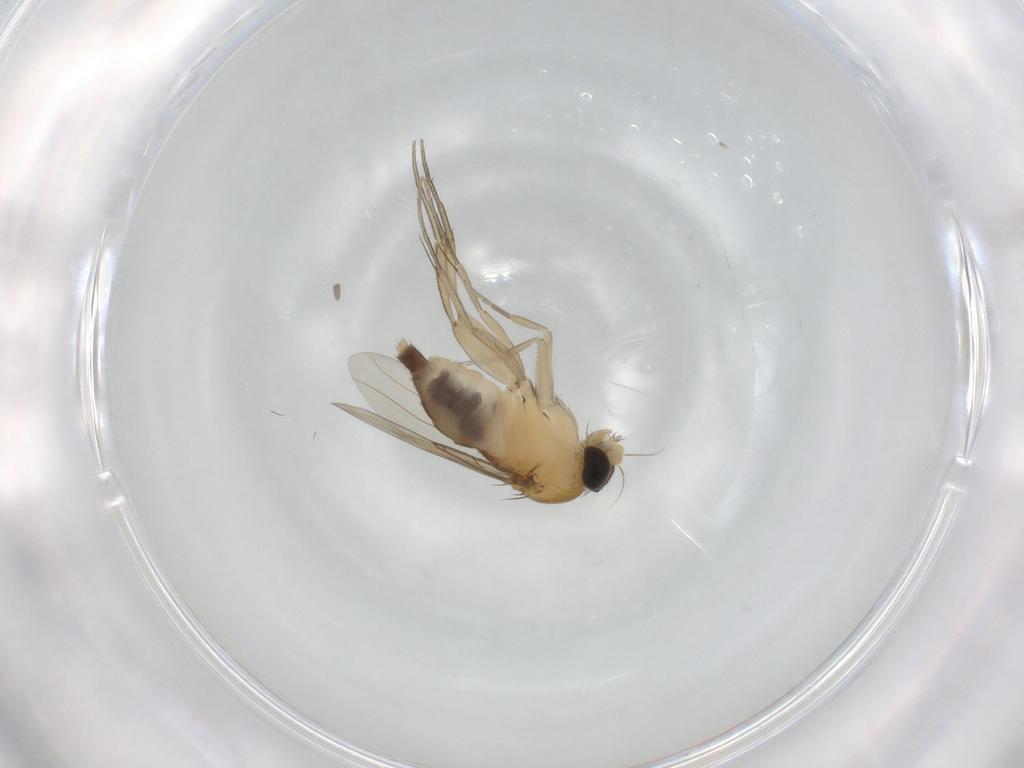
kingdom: Animalia
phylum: Arthropoda
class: Insecta
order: Diptera
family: Phoridae
